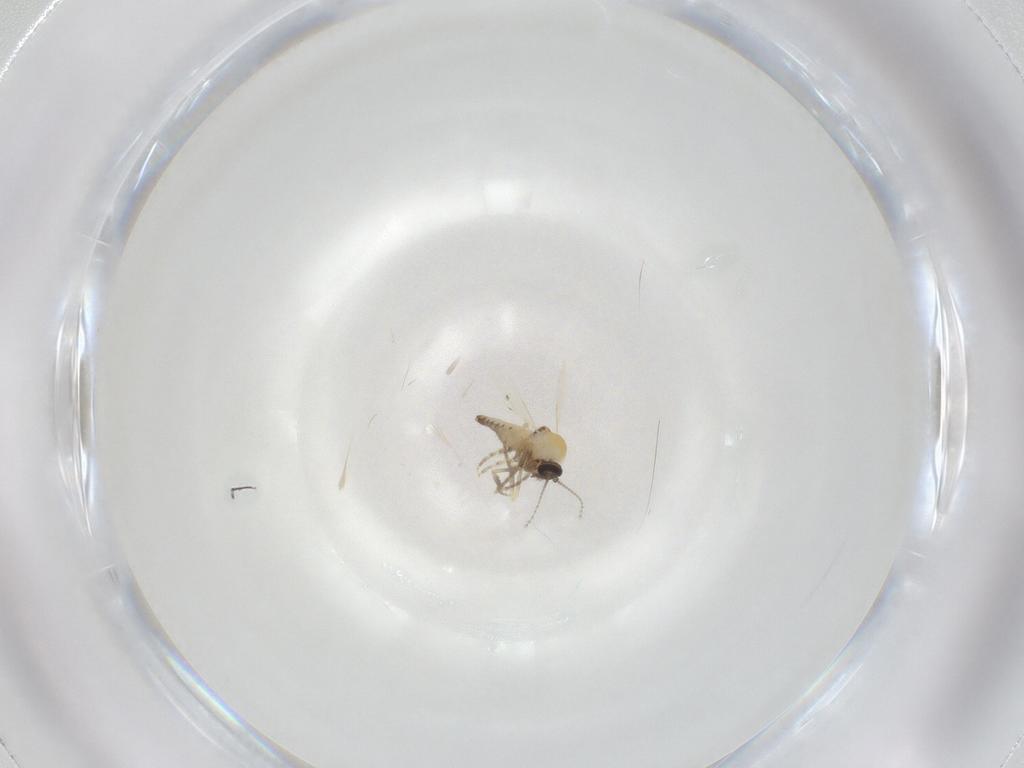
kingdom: Animalia
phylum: Arthropoda
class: Insecta
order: Diptera
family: Ceratopogonidae
